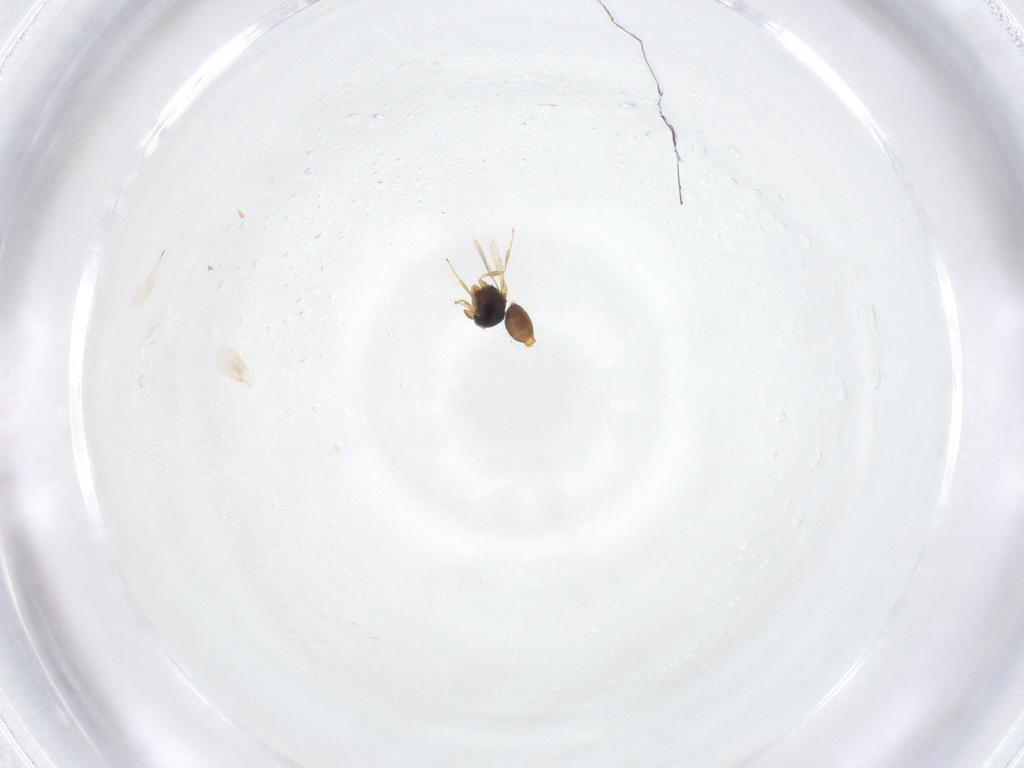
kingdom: Animalia
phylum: Arthropoda
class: Insecta
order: Hymenoptera
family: Scelionidae
